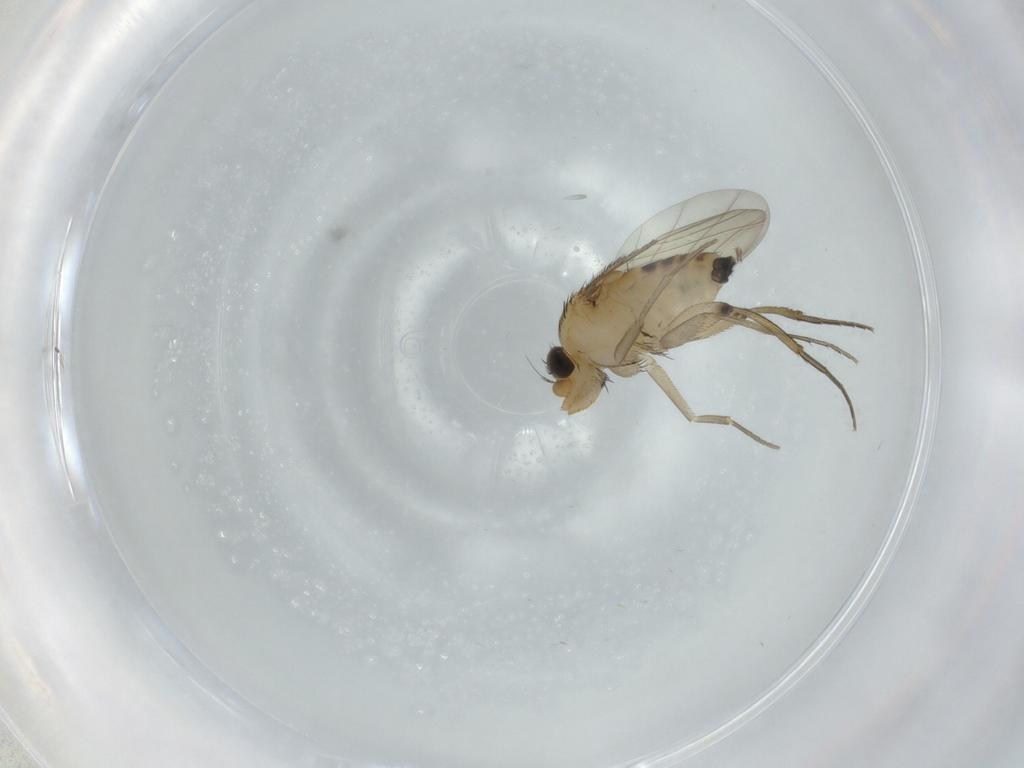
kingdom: Animalia
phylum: Arthropoda
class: Insecta
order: Diptera
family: Phoridae
